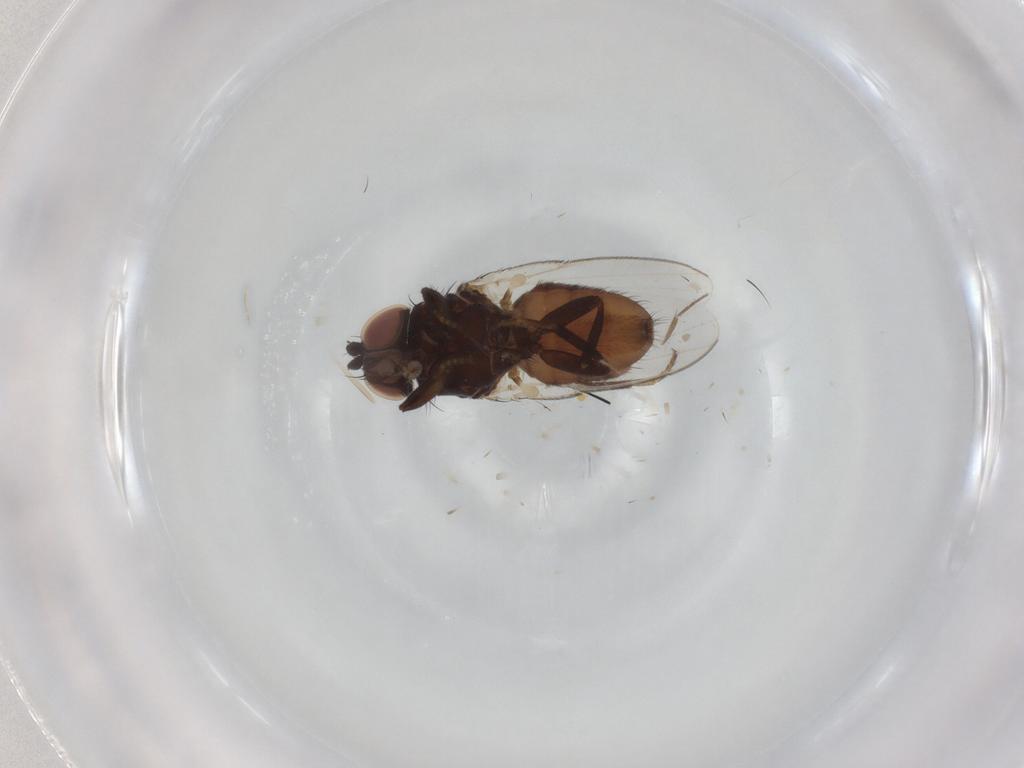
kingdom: Animalia
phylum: Arthropoda
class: Insecta
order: Diptera
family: Milichiidae
